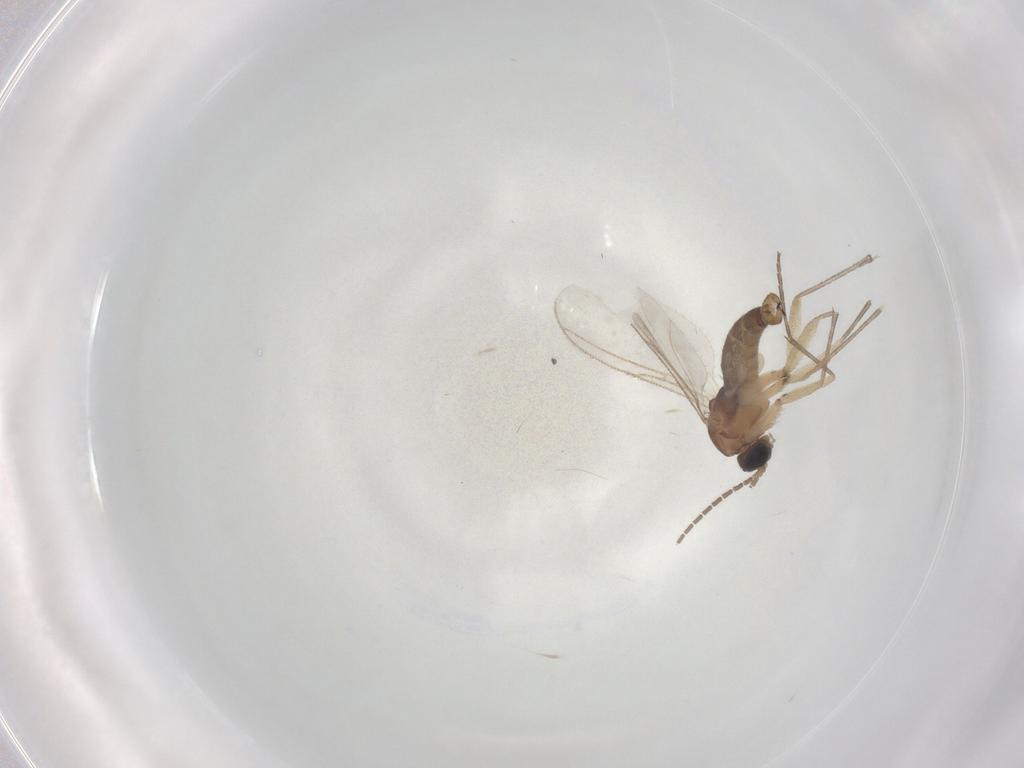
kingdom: Animalia
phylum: Arthropoda
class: Insecta
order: Diptera
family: Sciaridae
